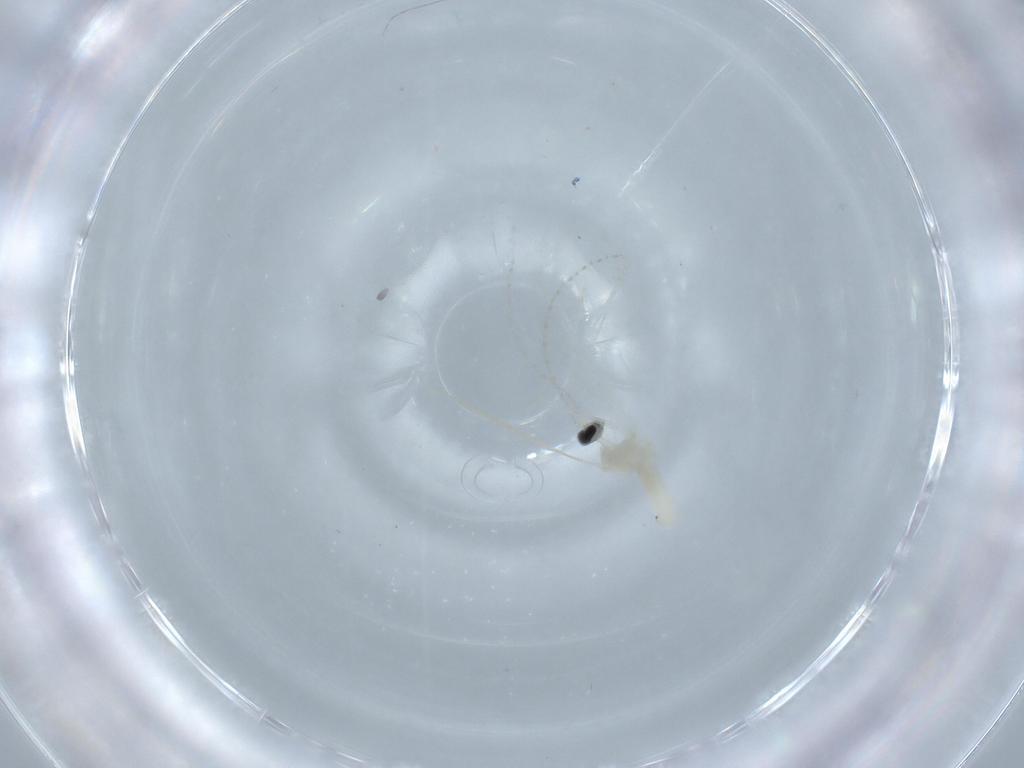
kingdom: Animalia
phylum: Arthropoda
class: Insecta
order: Diptera
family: Cecidomyiidae
